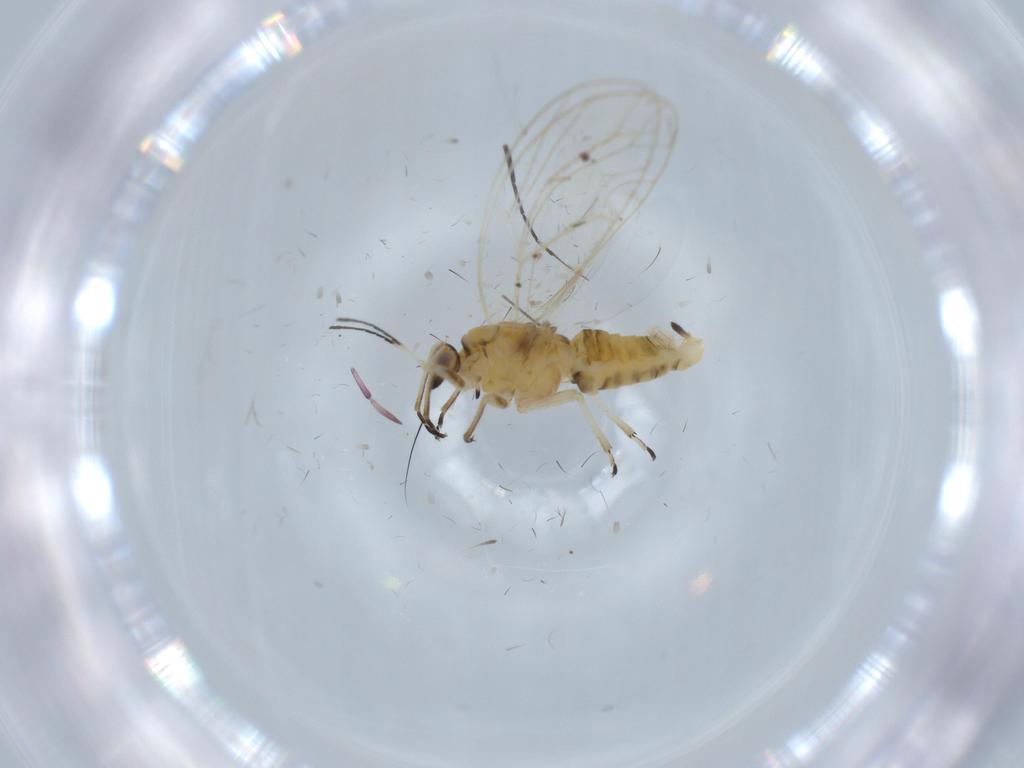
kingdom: Animalia
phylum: Arthropoda
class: Insecta
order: Hemiptera
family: Aphididae
